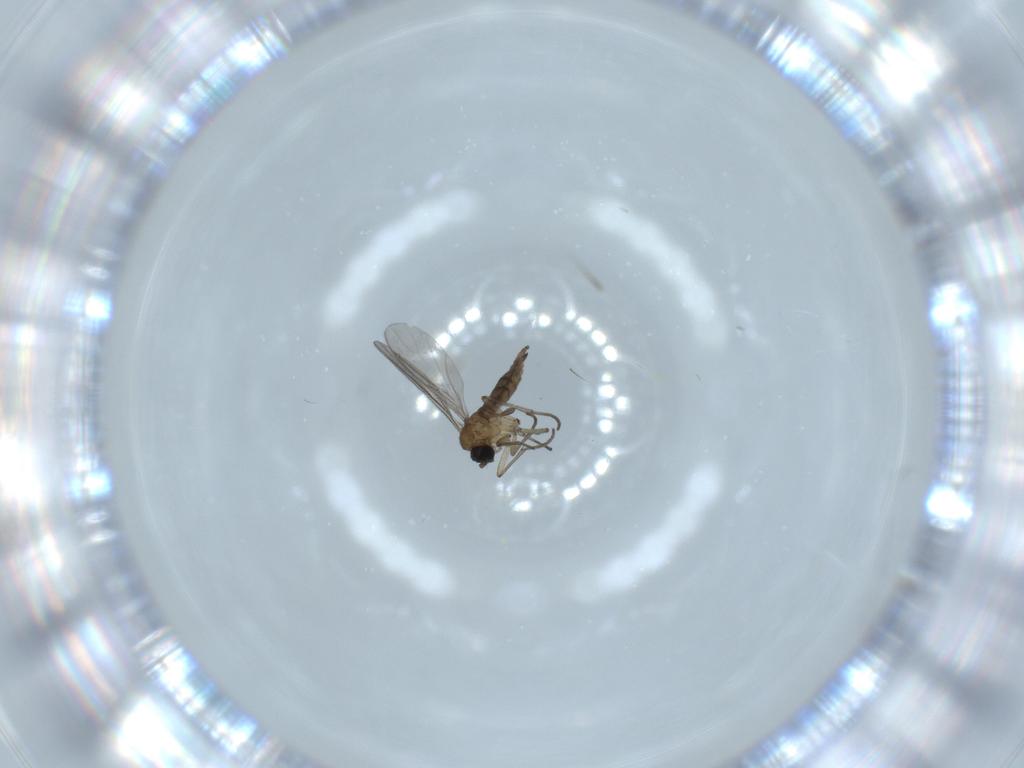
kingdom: Animalia
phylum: Arthropoda
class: Insecta
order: Diptera
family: Sciaridae
